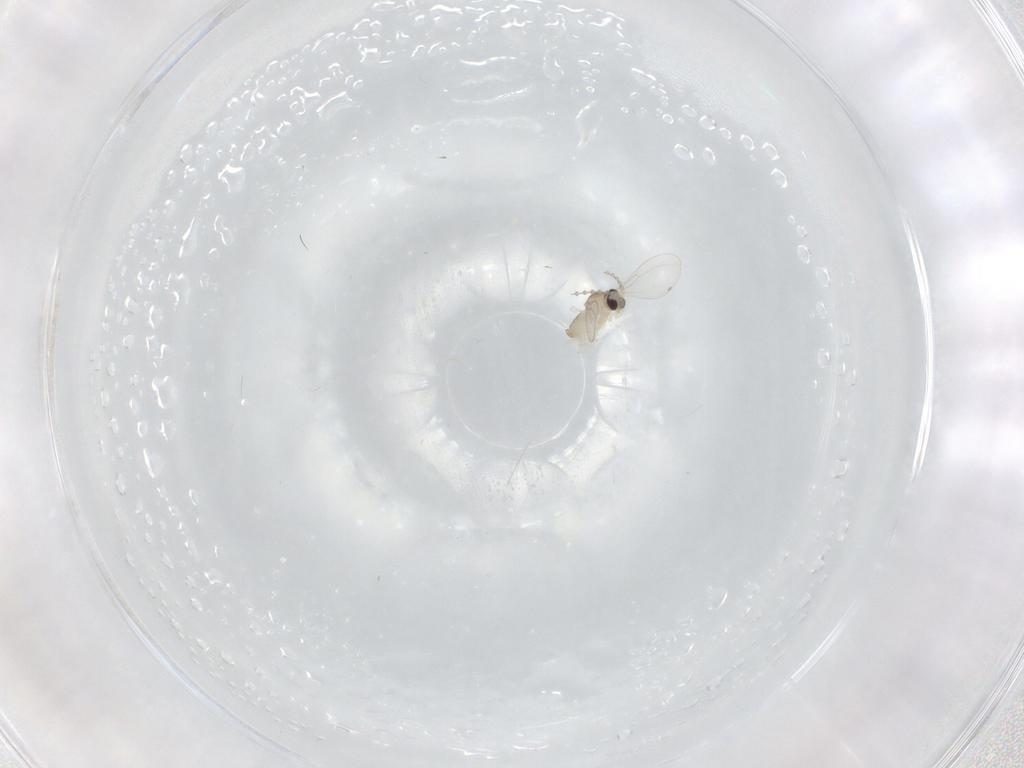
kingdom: Animalia
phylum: Arthropoda
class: Insecta
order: Diptera
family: Cecidomyiidae
